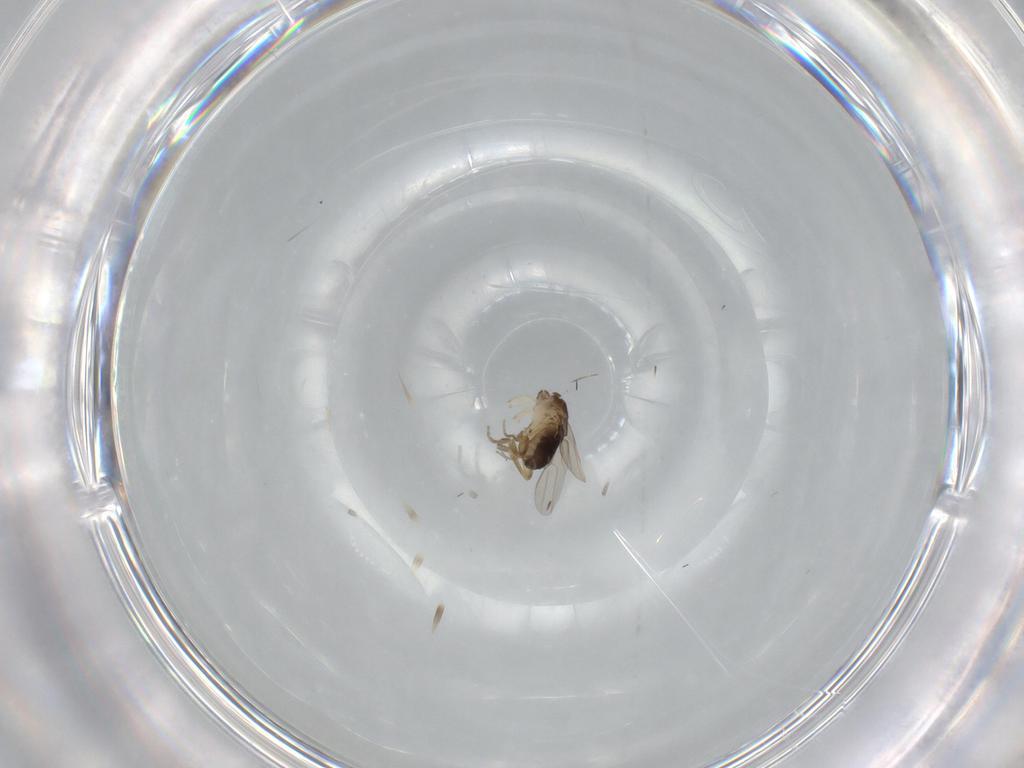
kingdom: Animalia
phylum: Arthropoda
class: Insecta
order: Diptera
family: Phoridae
